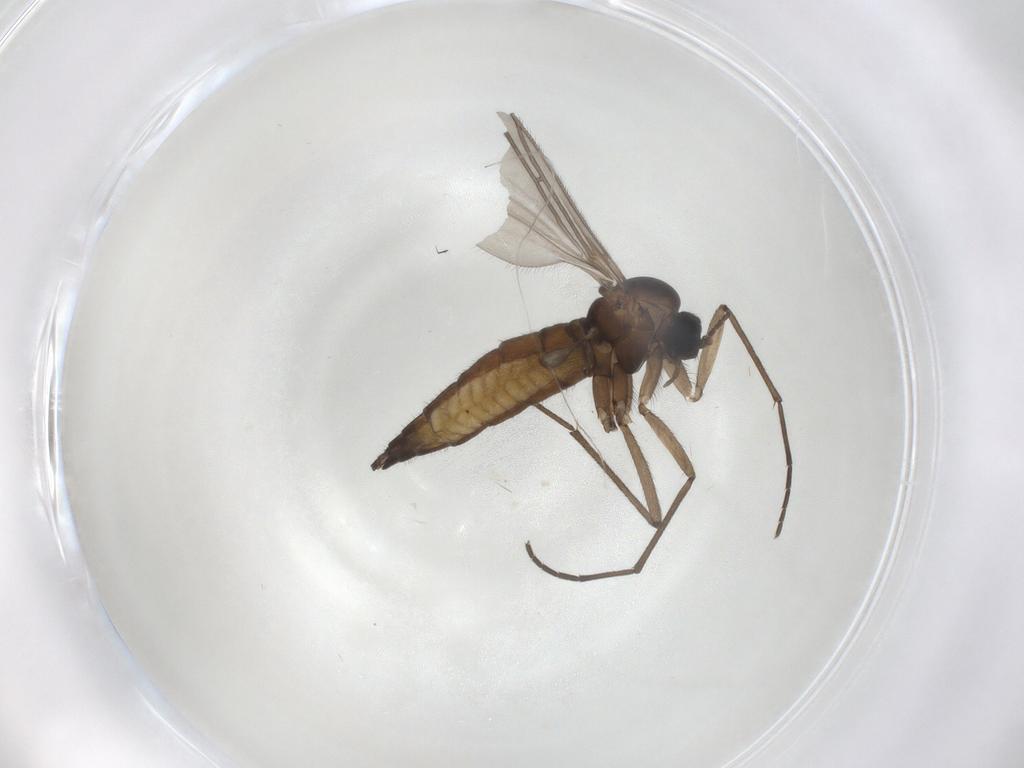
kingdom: Animalia
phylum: Arthropoda
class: Insecta
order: Diptera
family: Sciaridae
